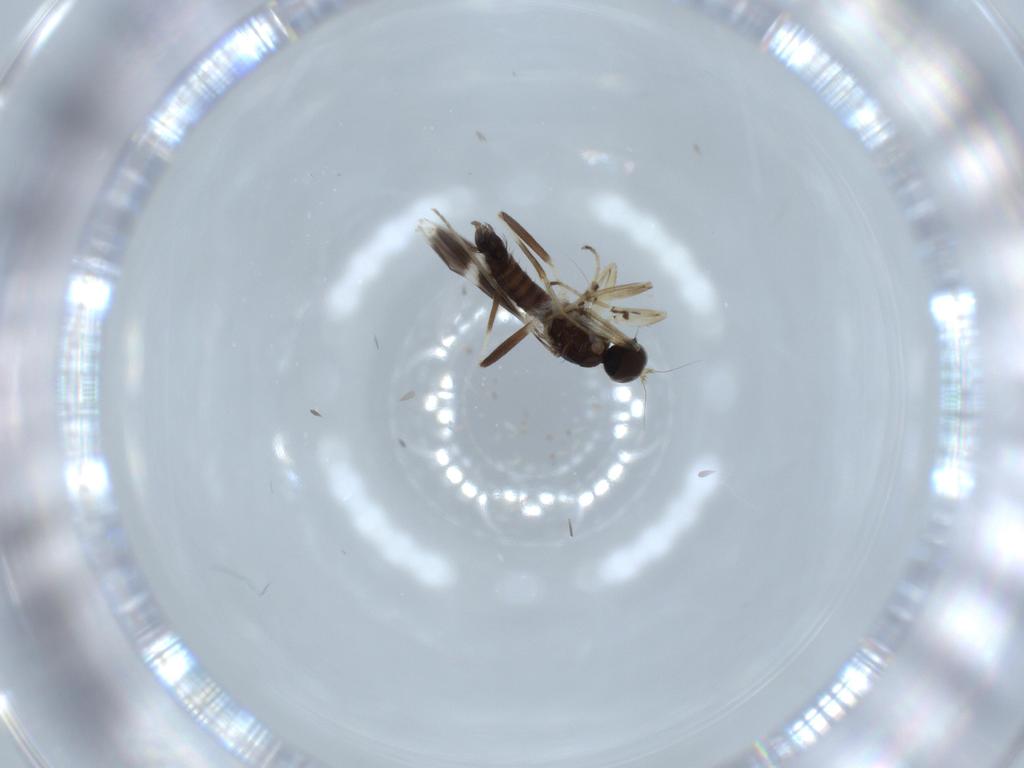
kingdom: Animalia
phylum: Arthropoda
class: Insecta
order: Diptera
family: Hybotidae
